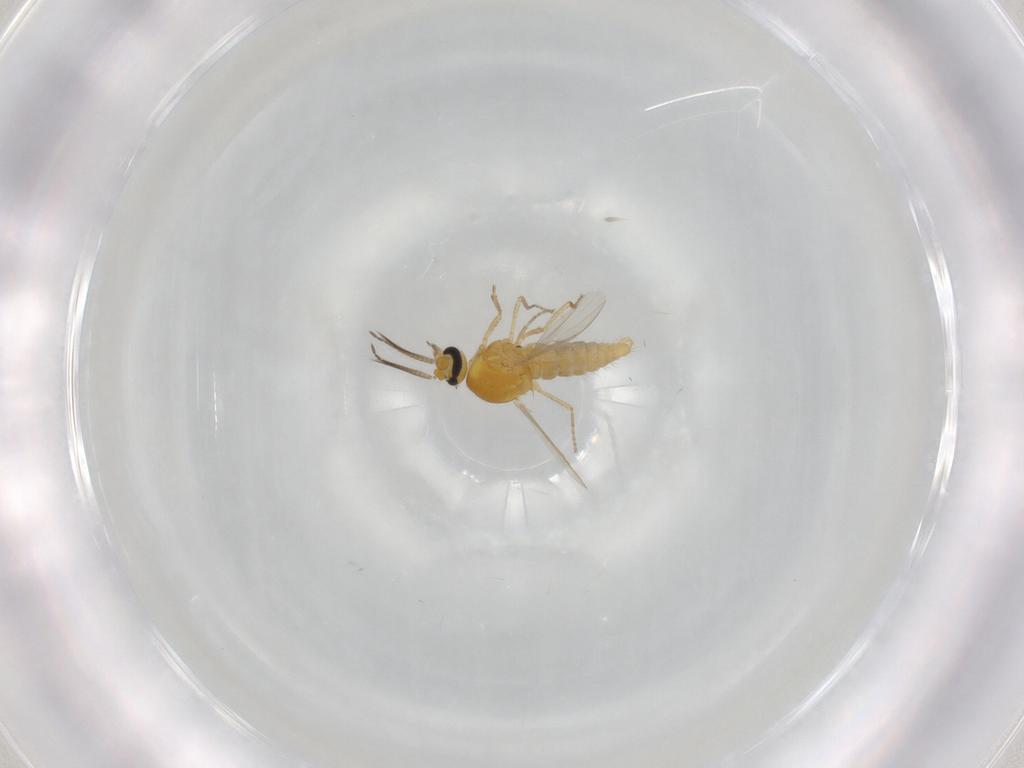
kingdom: Animalia
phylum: Arthropoda
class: Insecta
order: Diptera
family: Ceratopogonidae
